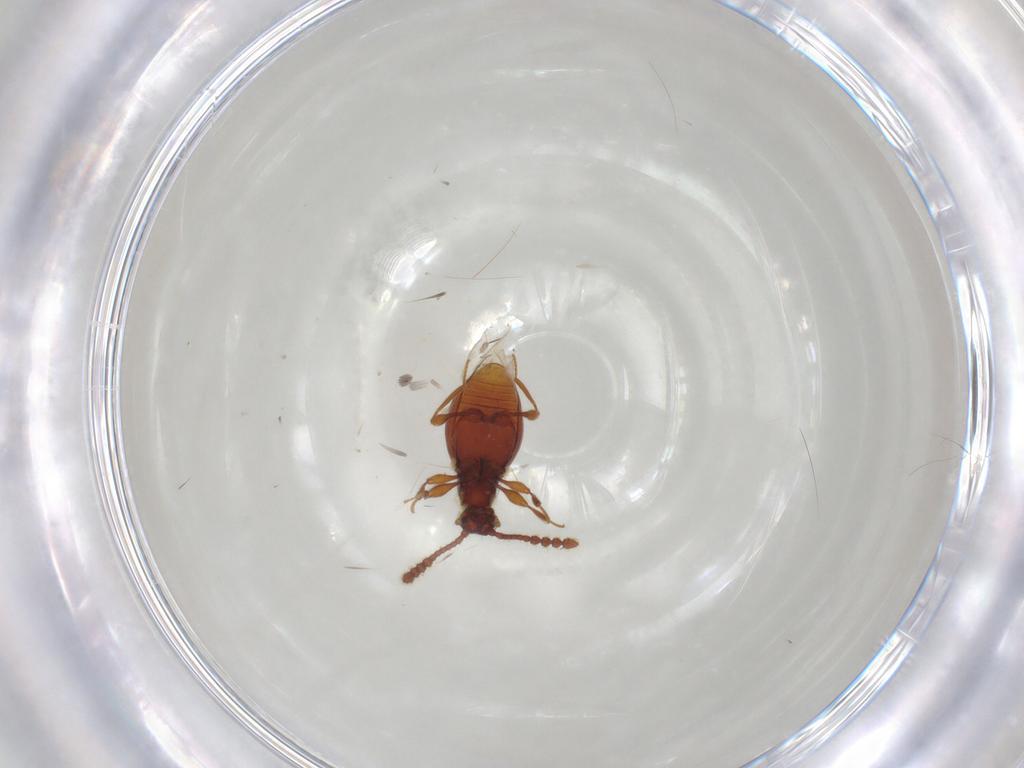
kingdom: Animalia
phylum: Arthropoda
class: Insecta
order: Coleoptera
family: Staphylinidae
